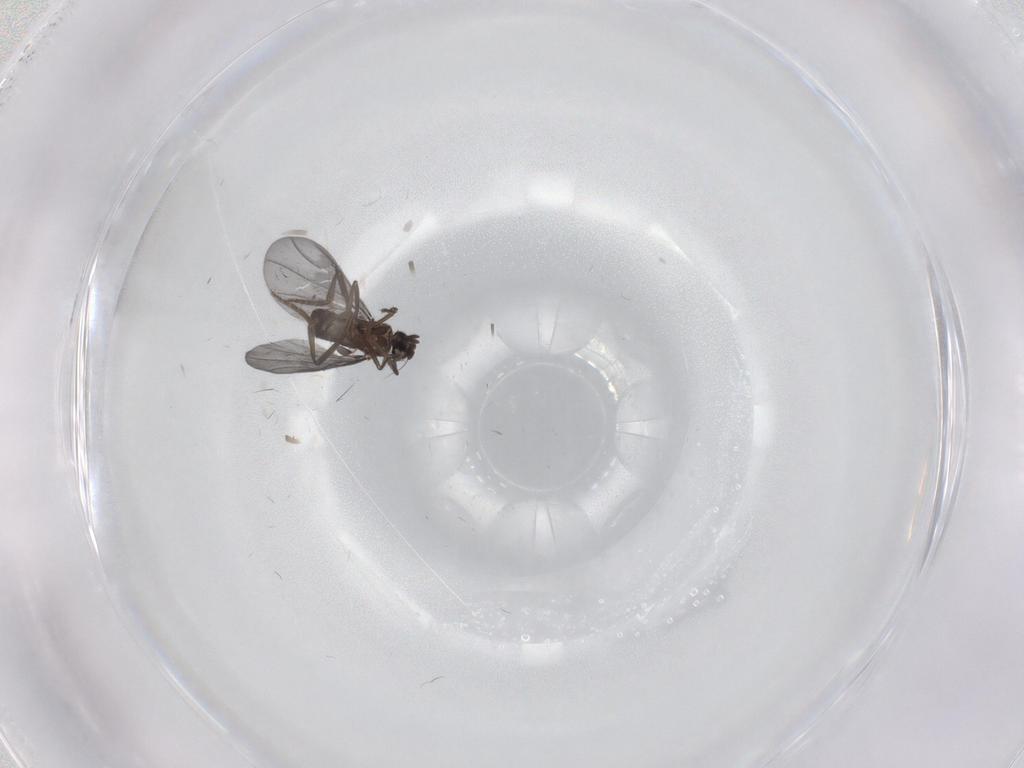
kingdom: Animalia
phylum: Arthropoda
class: Insecta
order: Diptera
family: Phoridae
